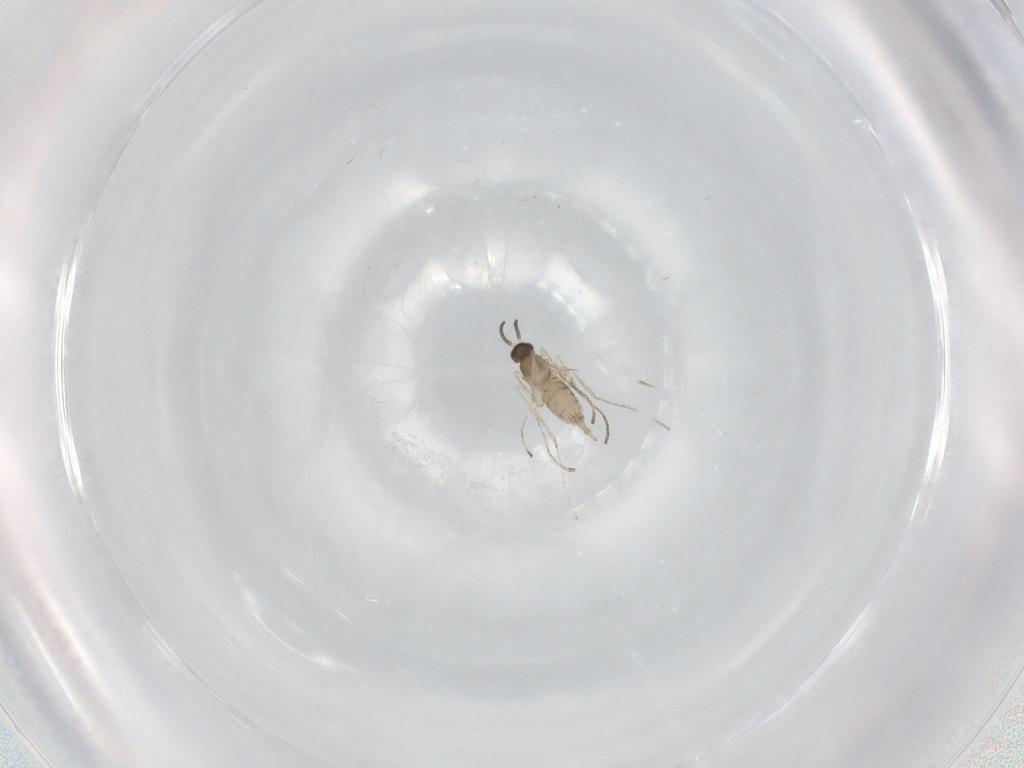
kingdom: Animalia
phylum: Arthropoda
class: Insecta
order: Diptera
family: Psychodidae
